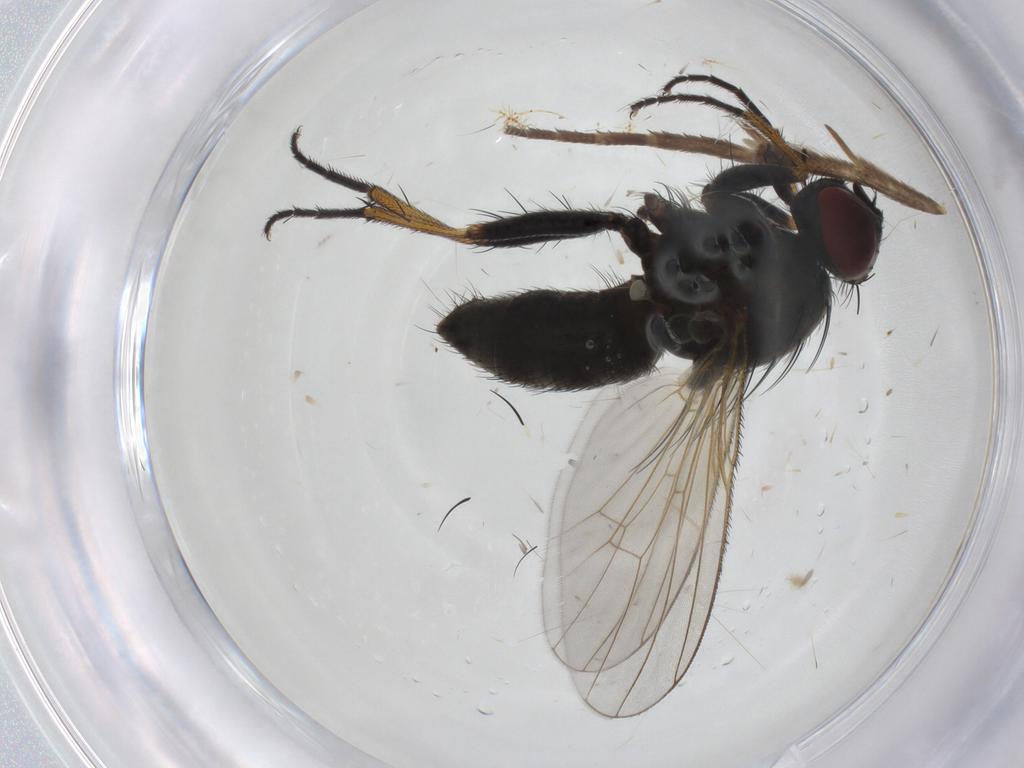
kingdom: Animalia
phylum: Arthropoda
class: Insecta
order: Diptera
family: Muscidae
